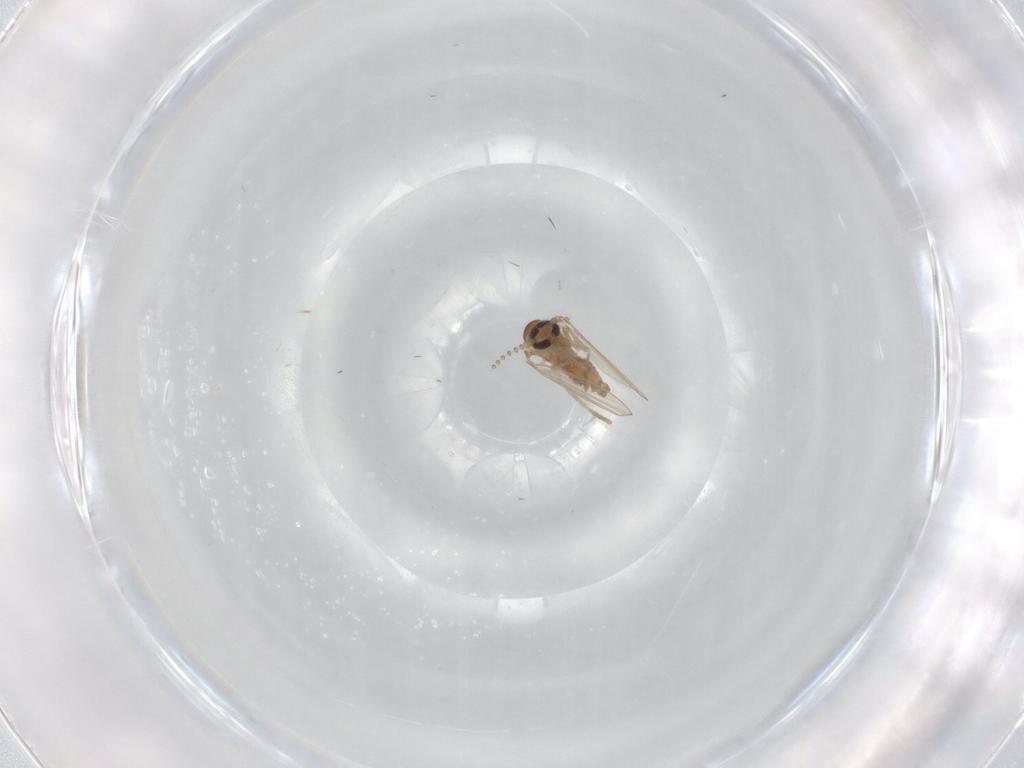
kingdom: Animalia
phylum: Arthropoda
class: Insecta
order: Diptera
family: Psychodidae
